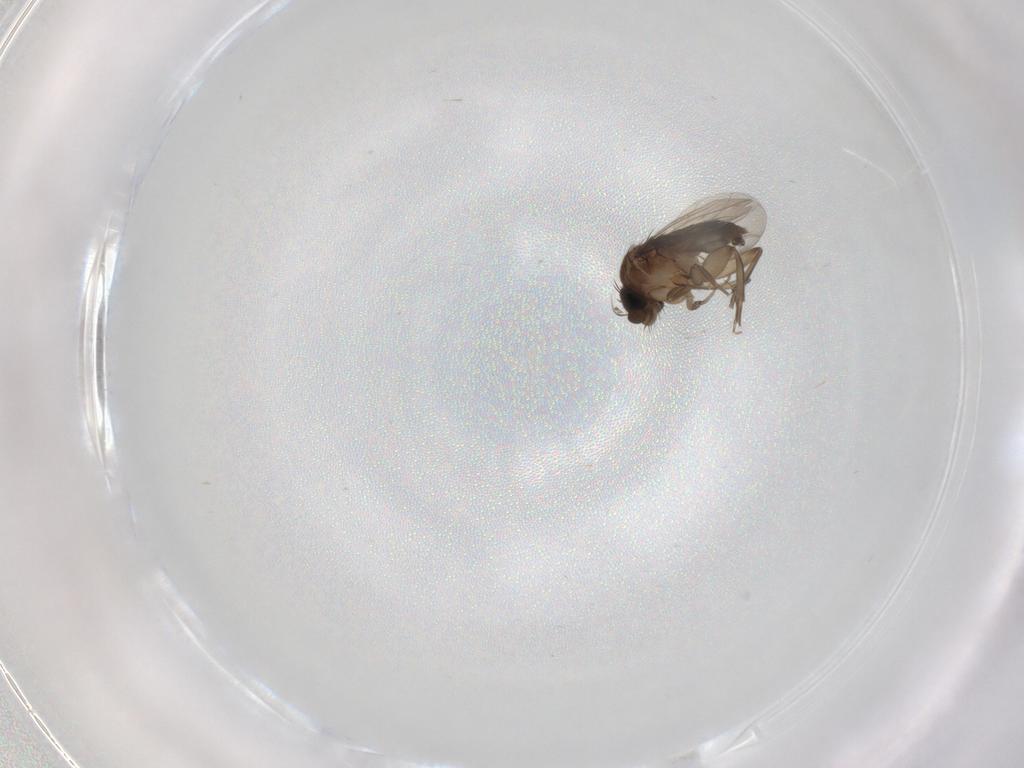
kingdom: Animalia
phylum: Arthropoda
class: Insecta
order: Diptera
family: Phoridae
